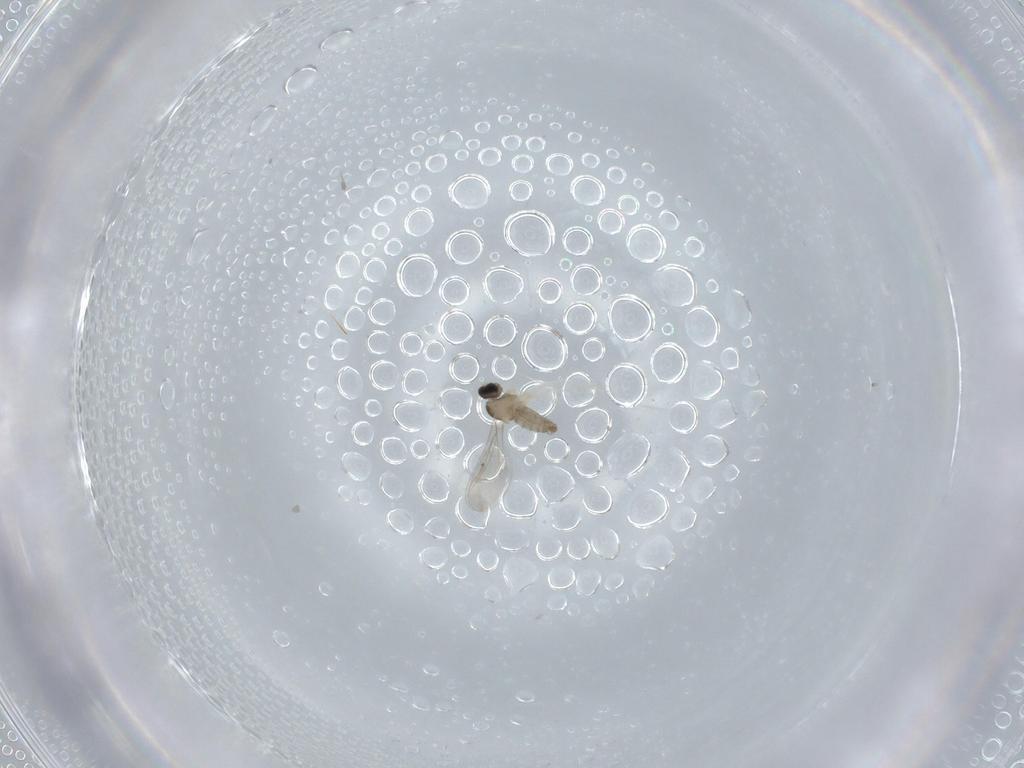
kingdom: Animalia
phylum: Arthropoda
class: Insecta
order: Diptera
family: Cecidomyiidae
